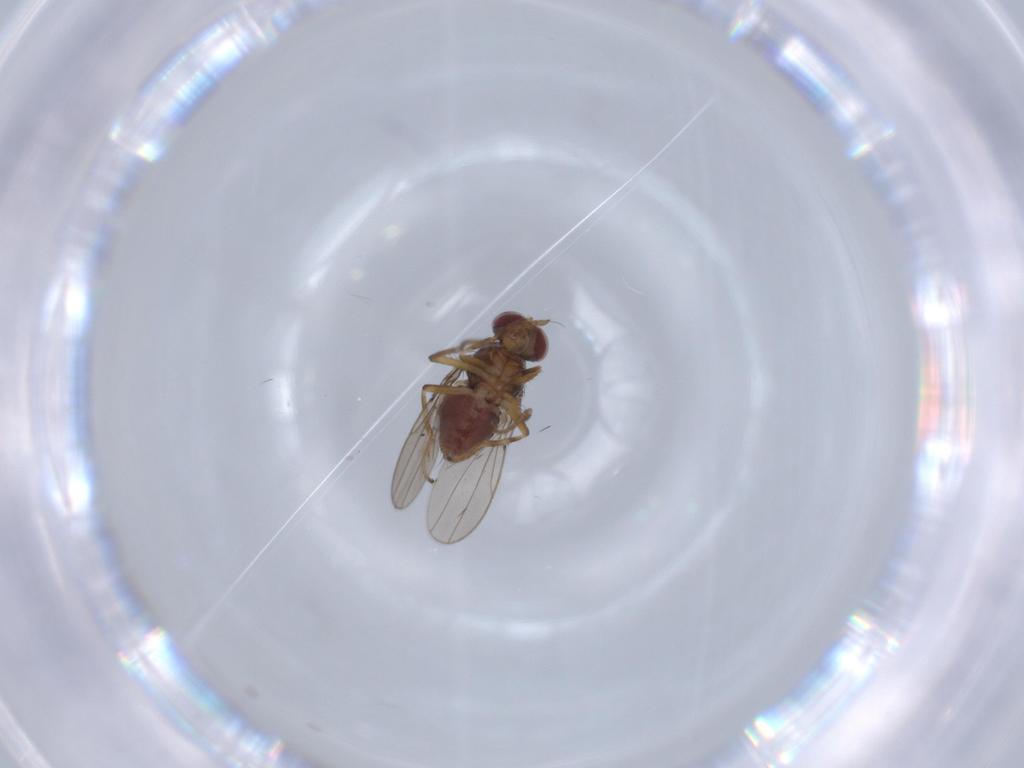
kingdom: Animalia
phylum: Arthropoda
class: Insecta
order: Diptera
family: Ephydridae
